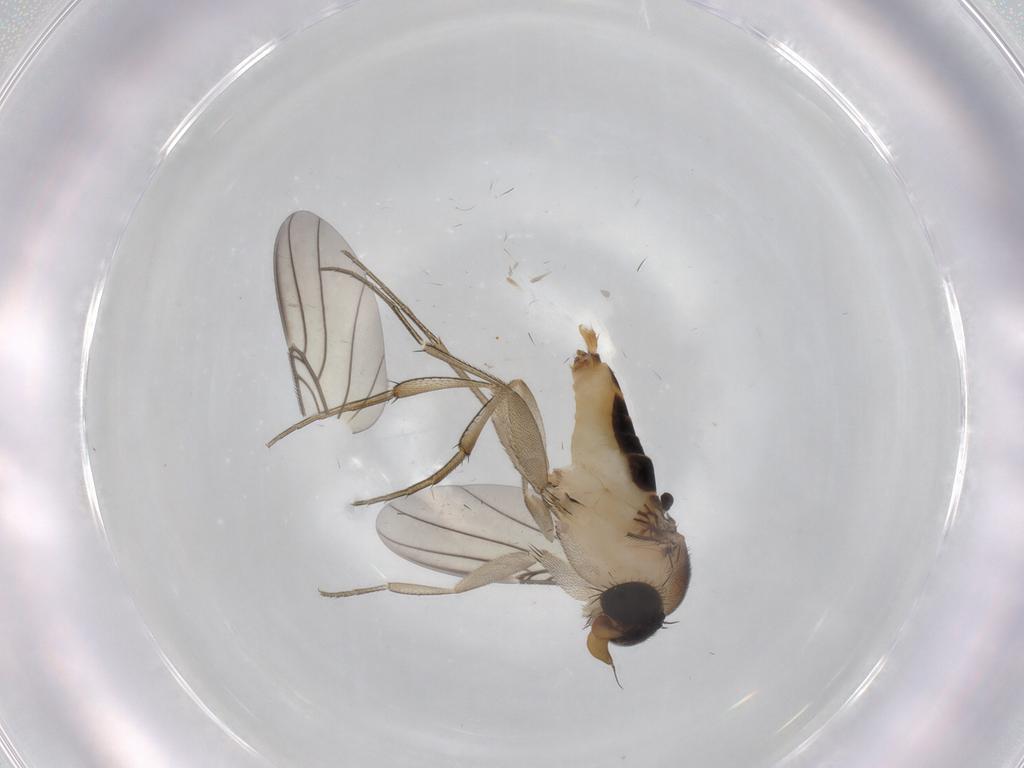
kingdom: Animalia
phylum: Arthropoda
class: Insecta
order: Diptera
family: Phoridae
